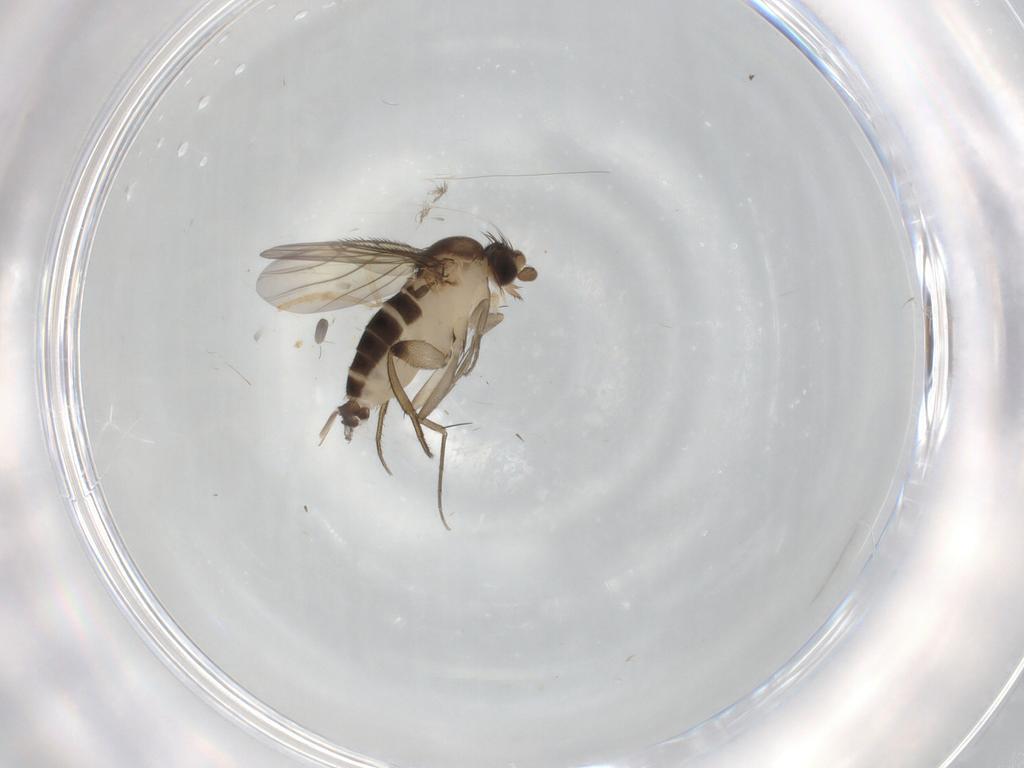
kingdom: Animalia
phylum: Arthropoda
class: Insecta
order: Diptera
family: Phoridae
